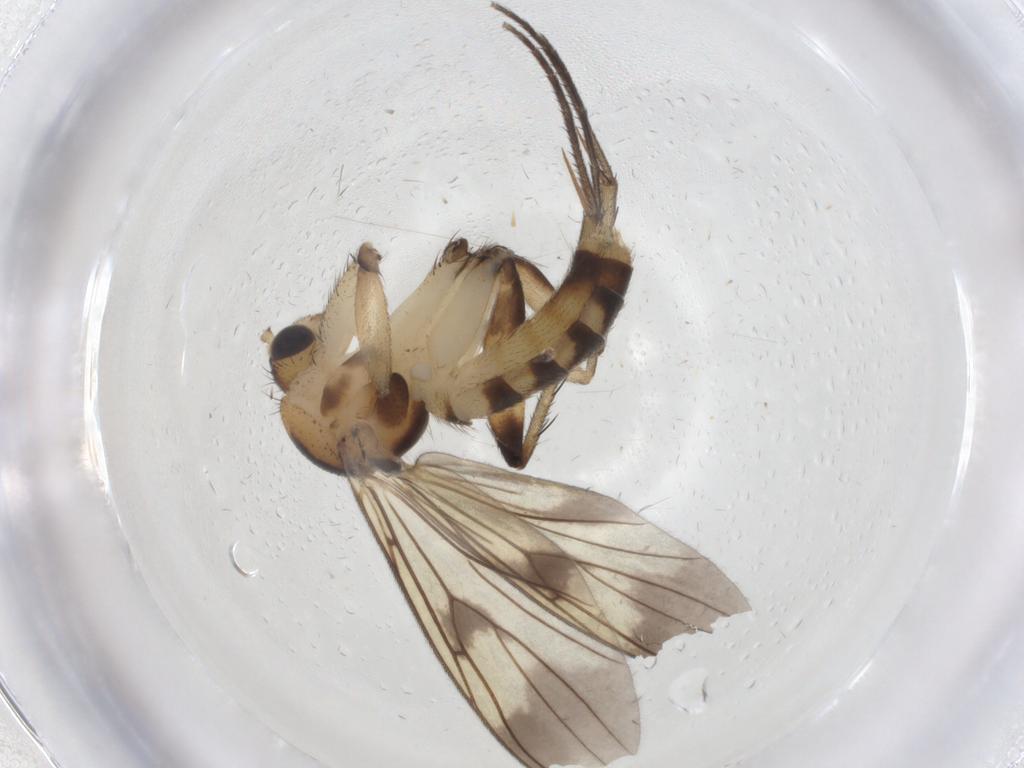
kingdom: Animalia
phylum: Arthropoda
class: Insecta
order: Diptera
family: Mycetophilidae
